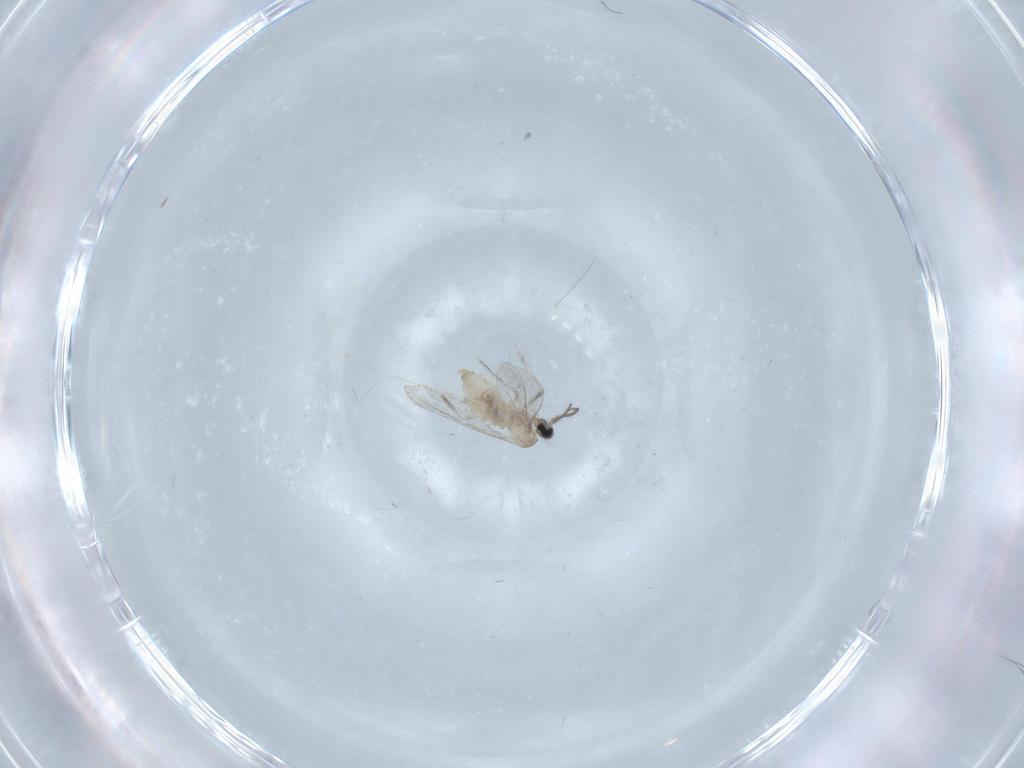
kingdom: Animalia
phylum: Arthropoda
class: Insecta
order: Diptera
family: Cecidomyiidae
